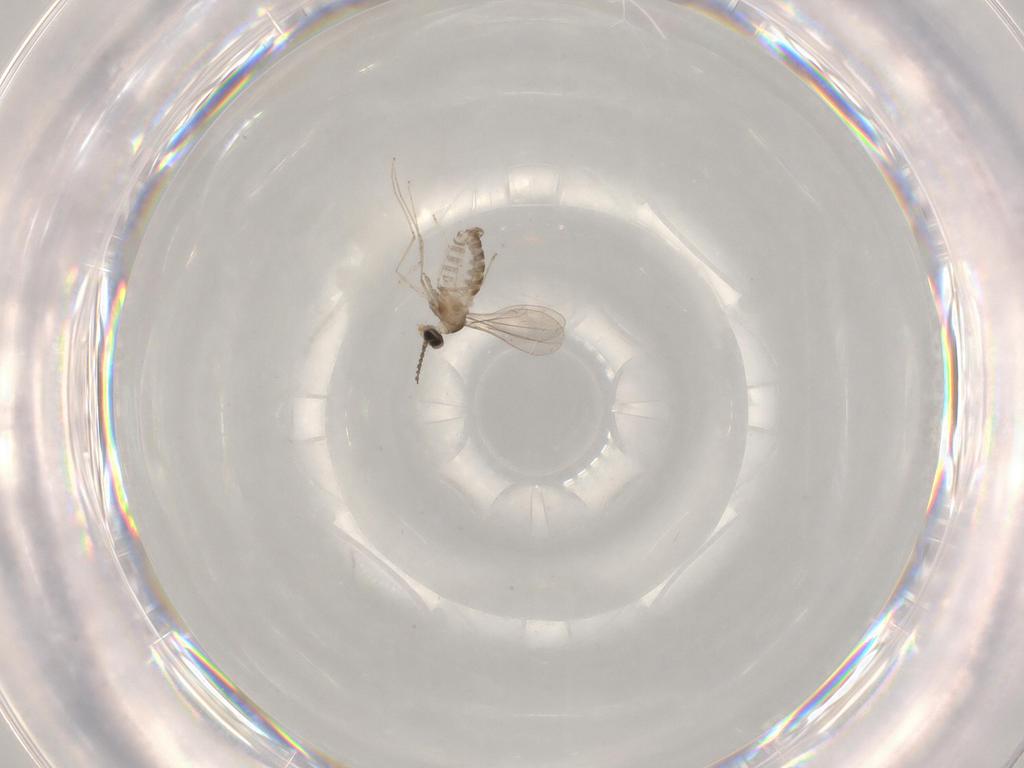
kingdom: Animalia
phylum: Arthropoda
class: Insecta
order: Diptera
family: Cecidomyiidae
